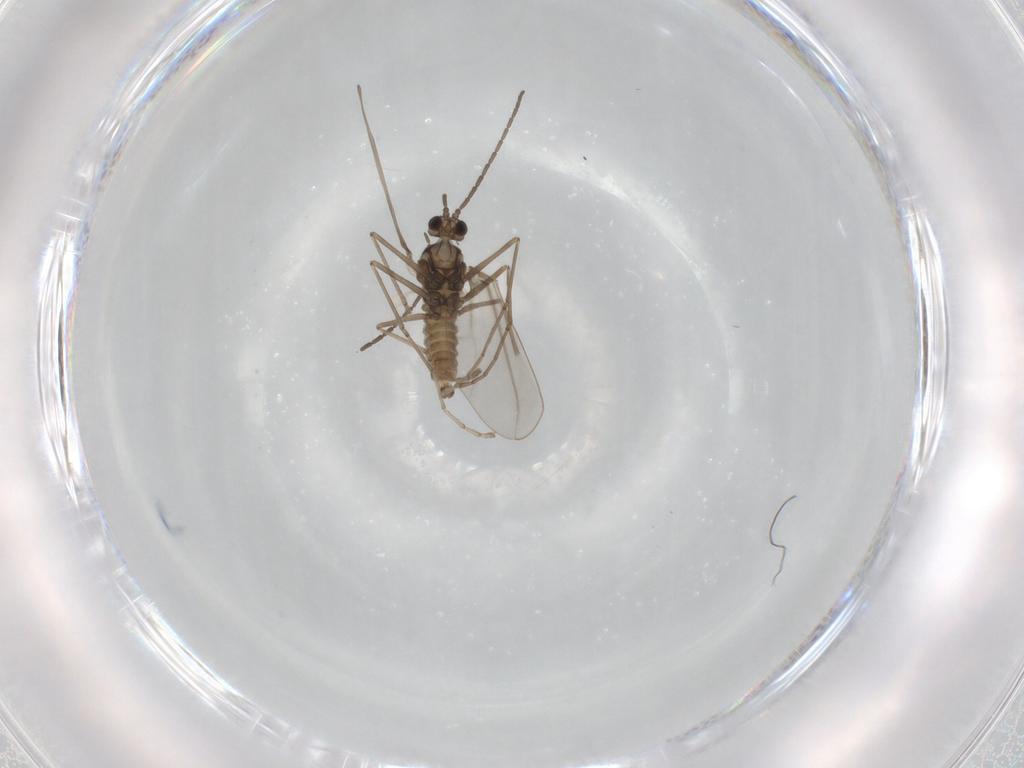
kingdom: Animalia
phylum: Arthropoda
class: Insecta
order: Diptera
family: Cecidomyiidae
